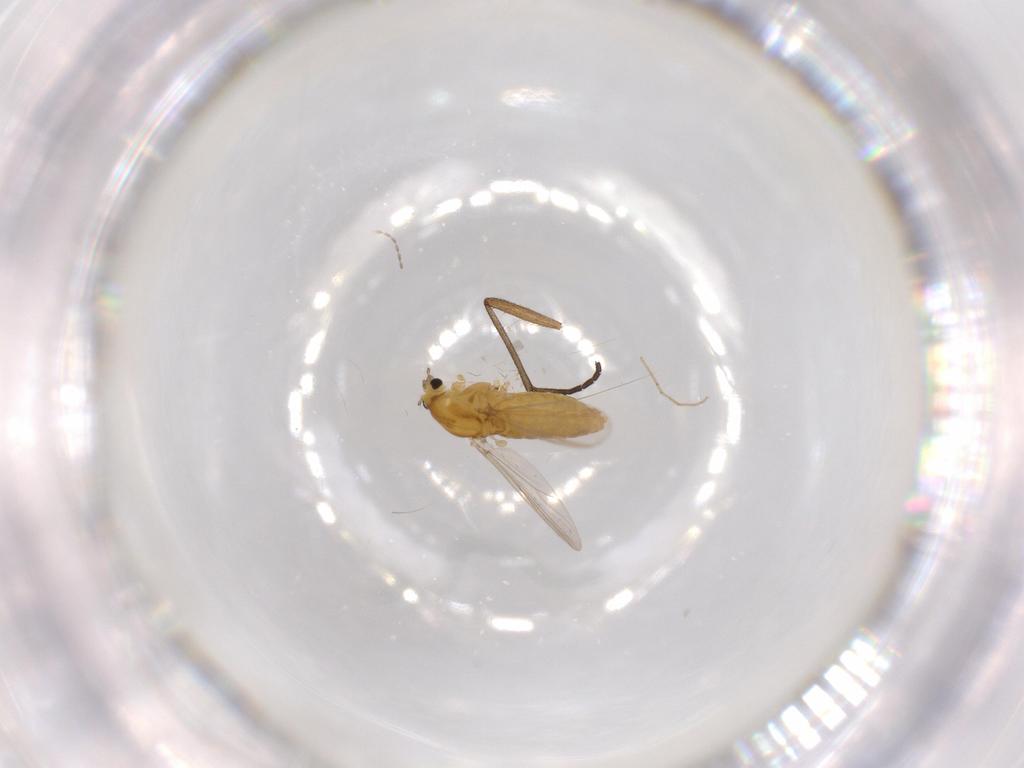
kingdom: Animalia
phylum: Arthropoda
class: Insecta
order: Diptera
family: Chironomidae
